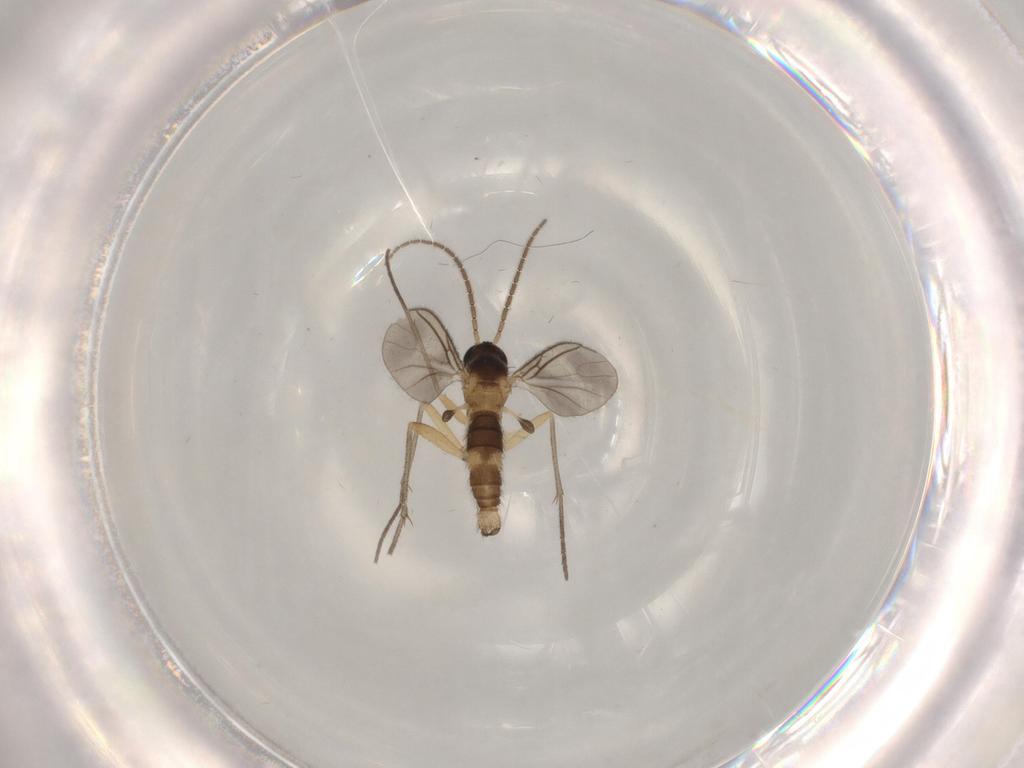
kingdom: Animalia
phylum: Arthropoda
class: Insecta
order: Diptera
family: Sciaridae
